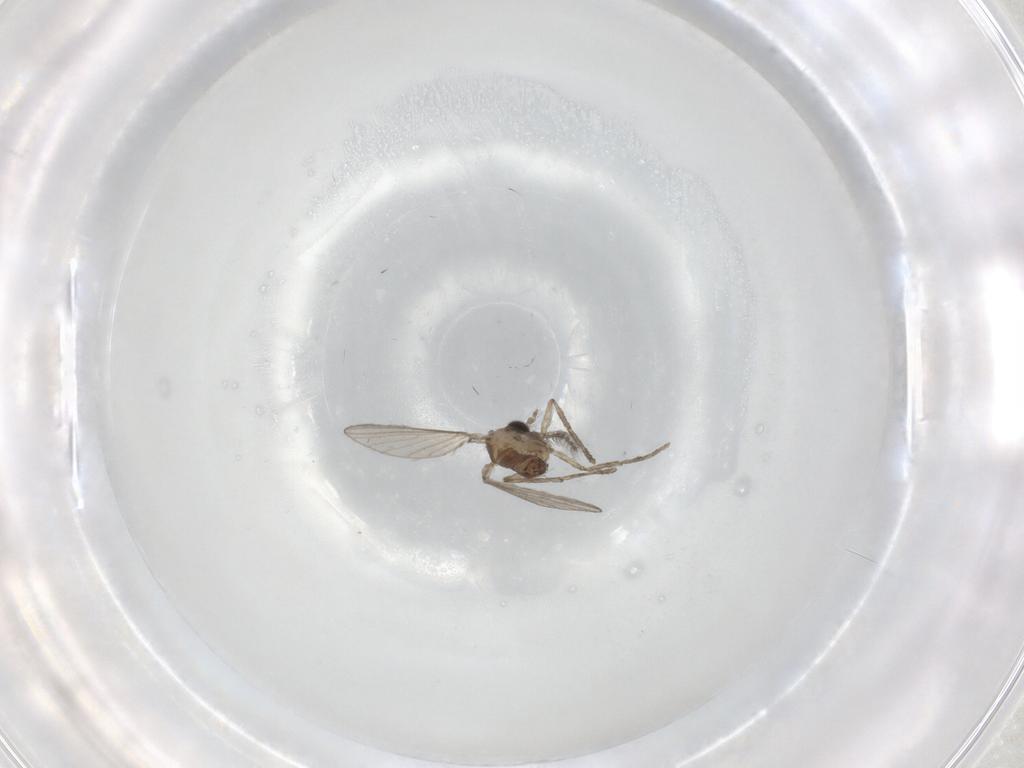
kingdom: Animalia
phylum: Arthropoda
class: Insecta
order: Diptera
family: Psychodidae
